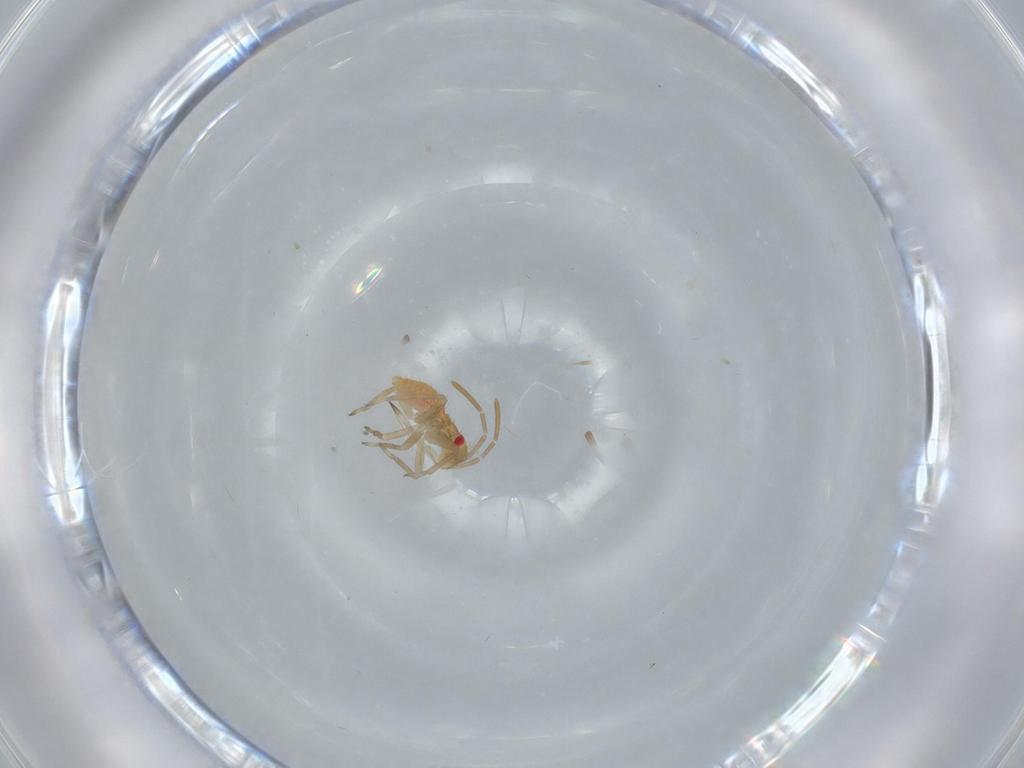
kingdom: Animalia
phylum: Arthropoda
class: Insecta
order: Hemiptera
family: Miridae
